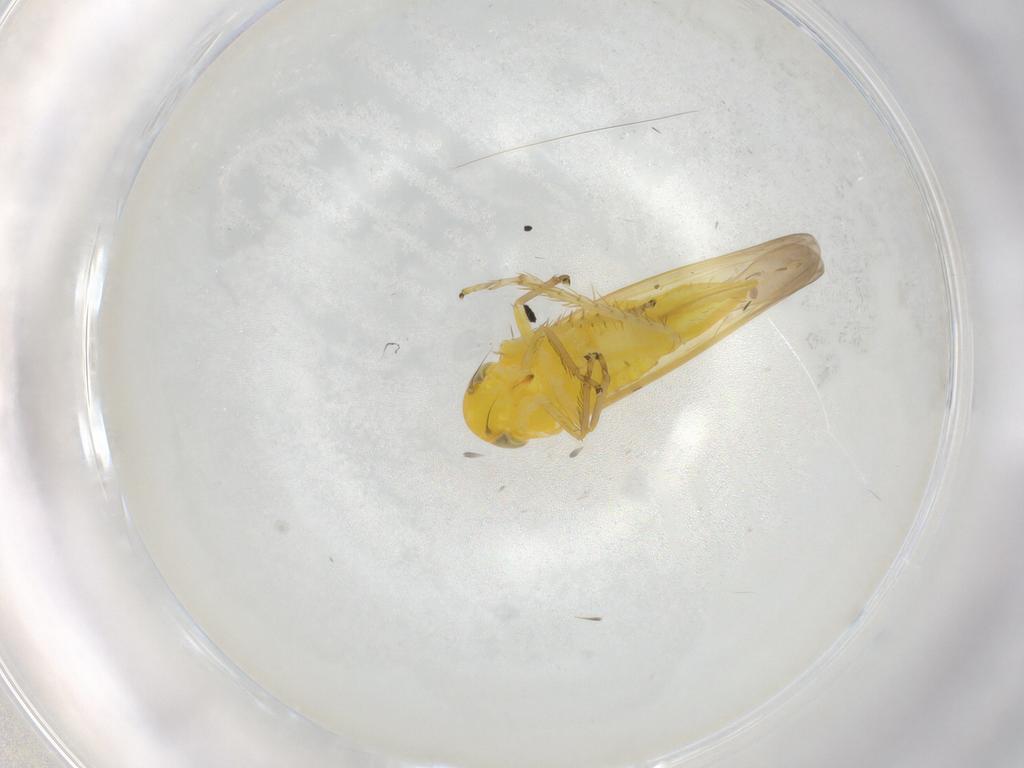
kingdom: Animalia
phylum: Arthropoda
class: Insecta
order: Hemiptera
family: Cicadellidae
